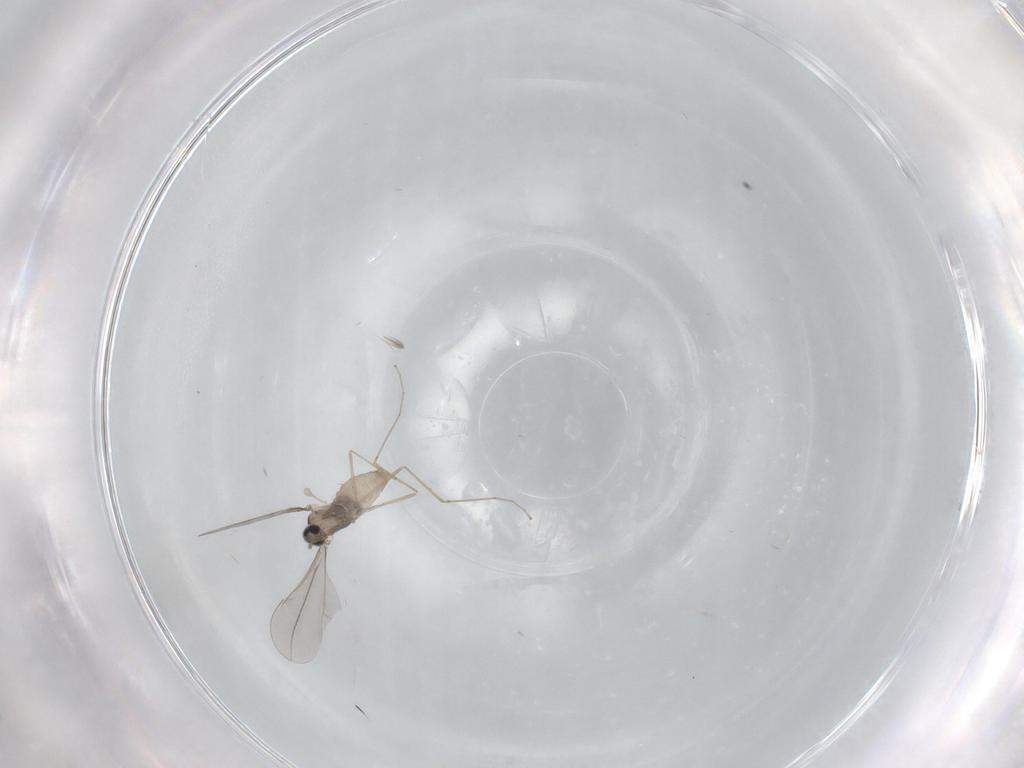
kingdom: Animalia
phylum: Arthropoda
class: Insecta
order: Diptera
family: Cecidomyiidae
